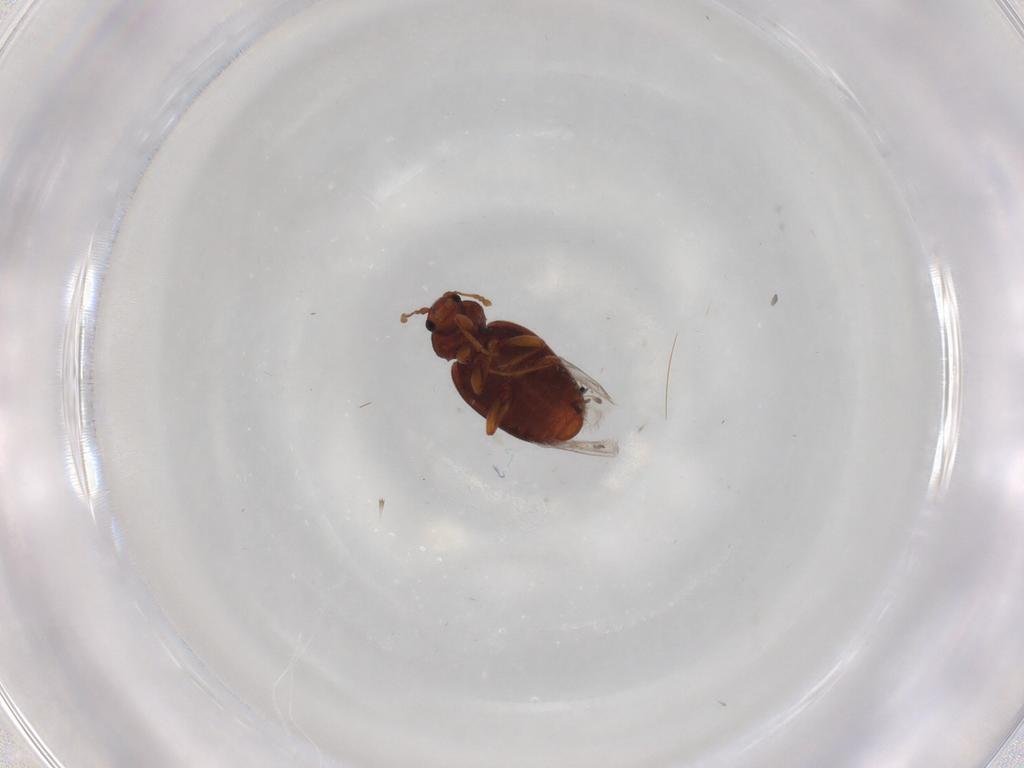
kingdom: Animalia
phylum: Arthropoda
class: Insecta
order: Coleoptera
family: Latridiidae
